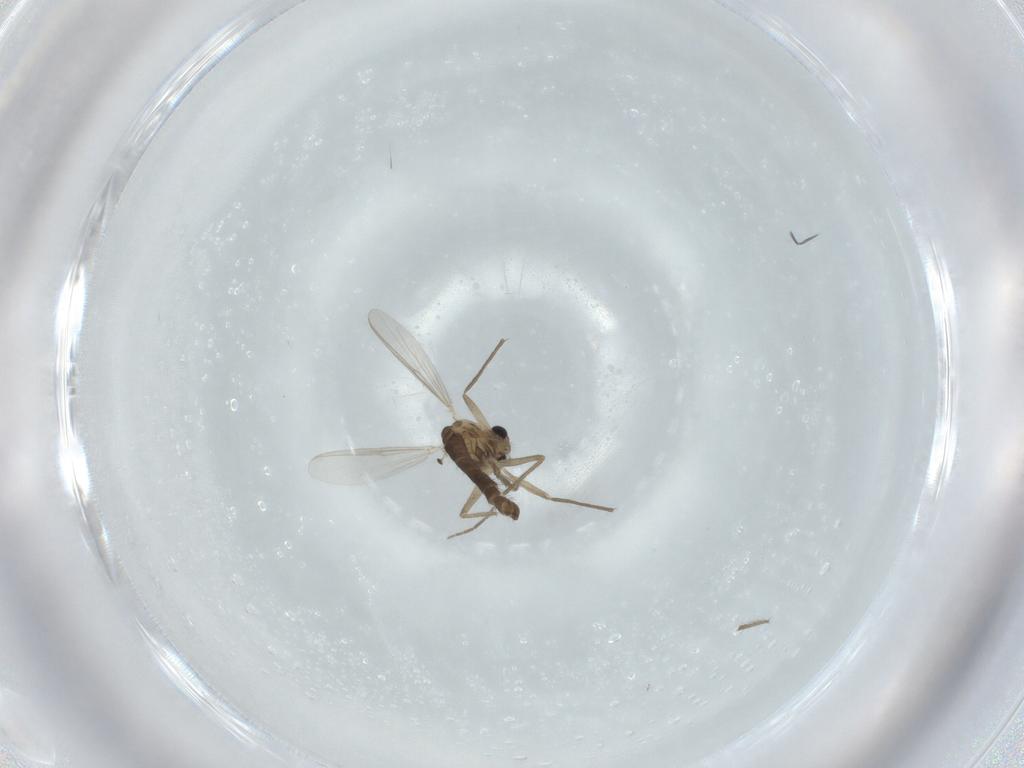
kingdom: Animalia
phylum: Arthropoda
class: Insecta
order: Diptera
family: Chironomidae
